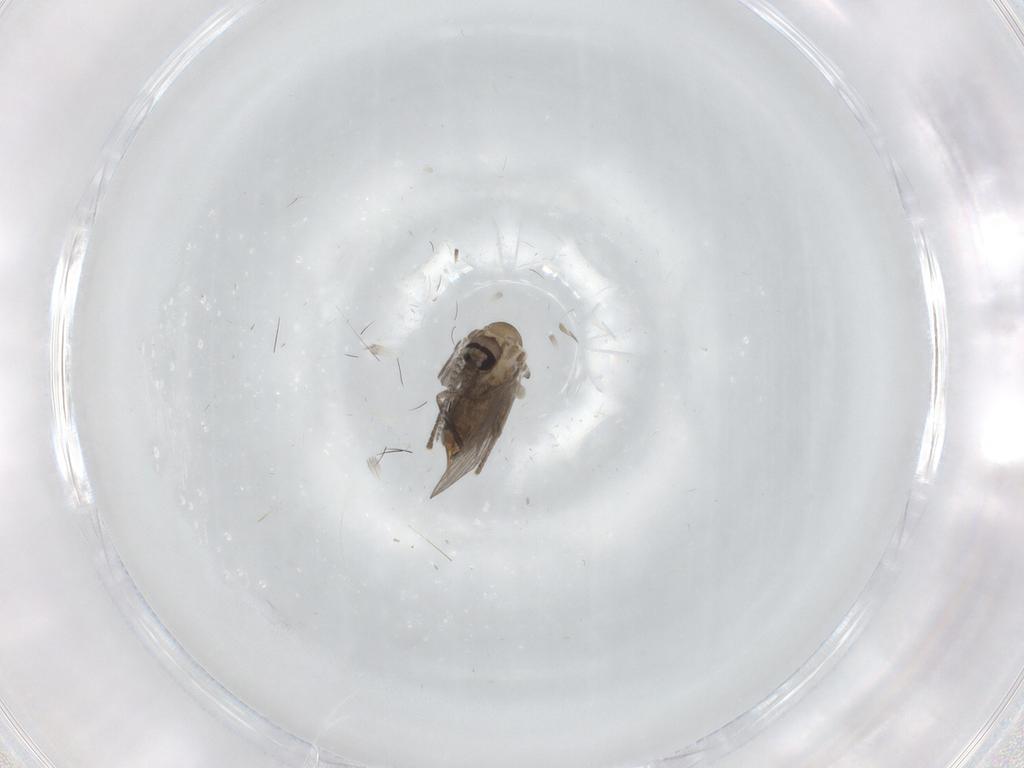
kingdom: Animalia
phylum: Arthropoda
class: Insecta
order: Diptera
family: Psychodidae
